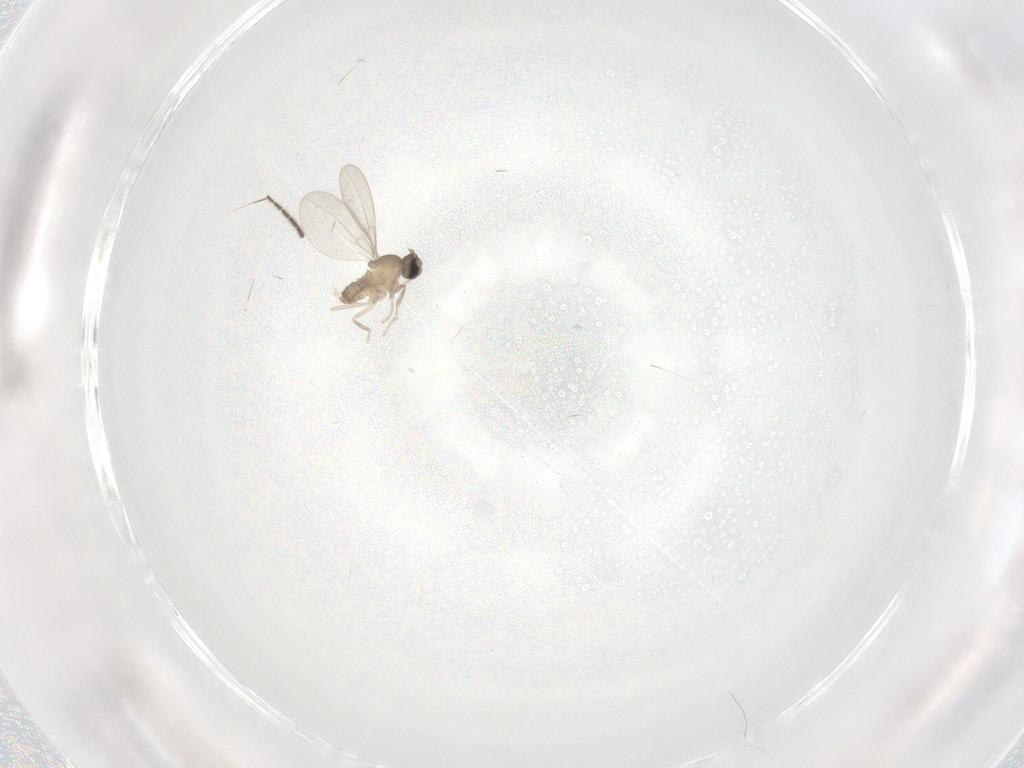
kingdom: Animalia
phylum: Arthropoda
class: Insecta
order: Diptera
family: Cecidomyiidae
